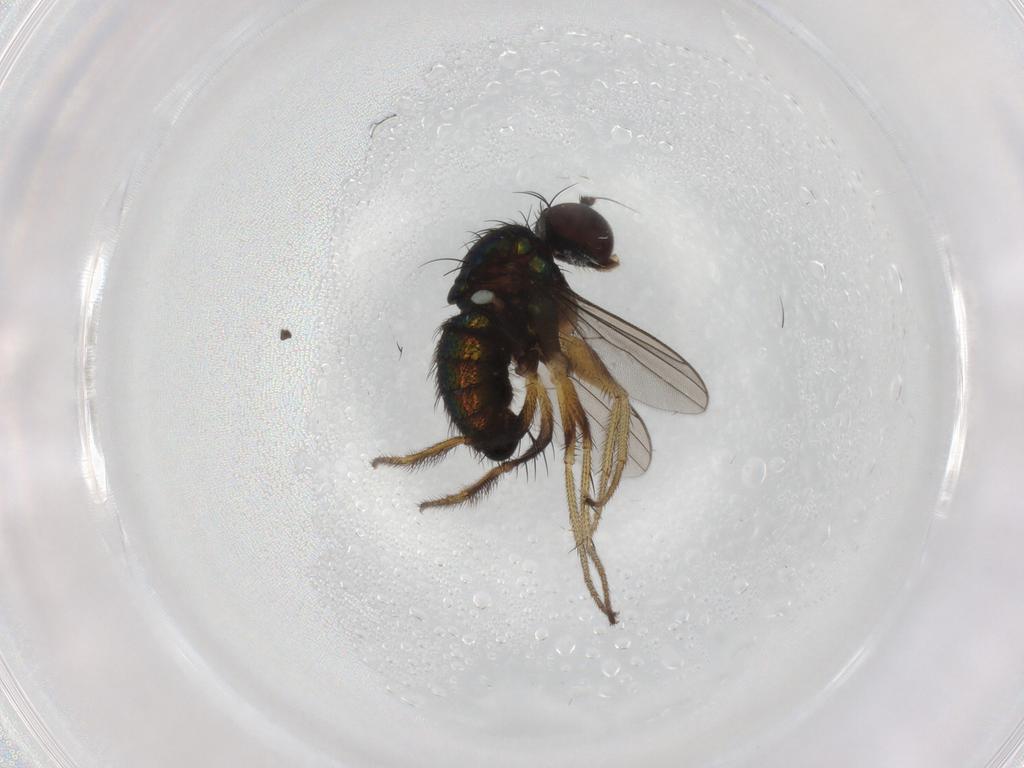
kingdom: Animalia
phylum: Arthropoda
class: Insecta
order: Diptera
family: Dolichopodidae
